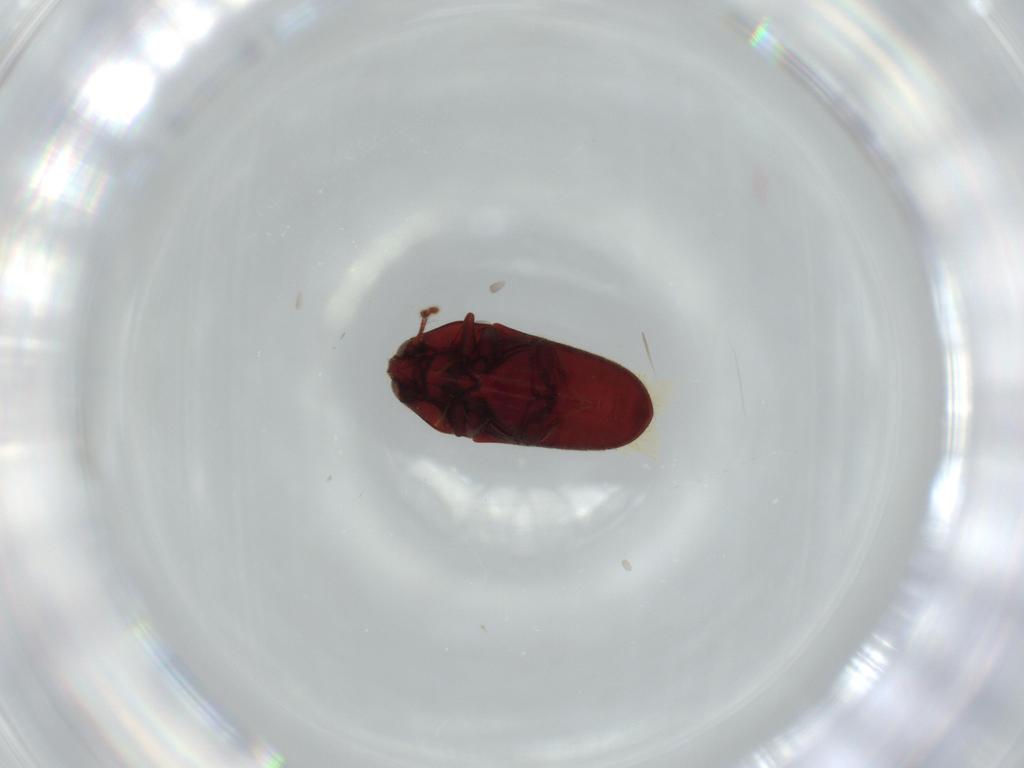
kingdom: Animalia
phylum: Arthropoda
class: Insecta
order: Coleoptera
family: Throscidae
